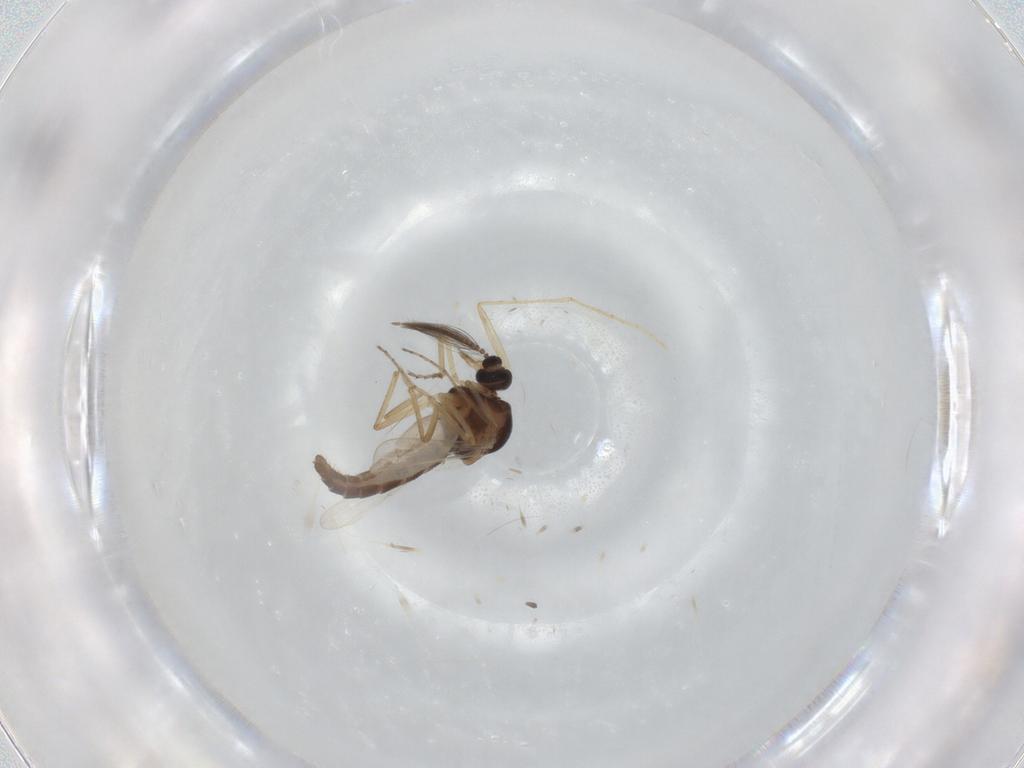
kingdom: Animalia
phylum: Arthropoda
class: Insecta
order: Diptera
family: Ceratopogonidae
